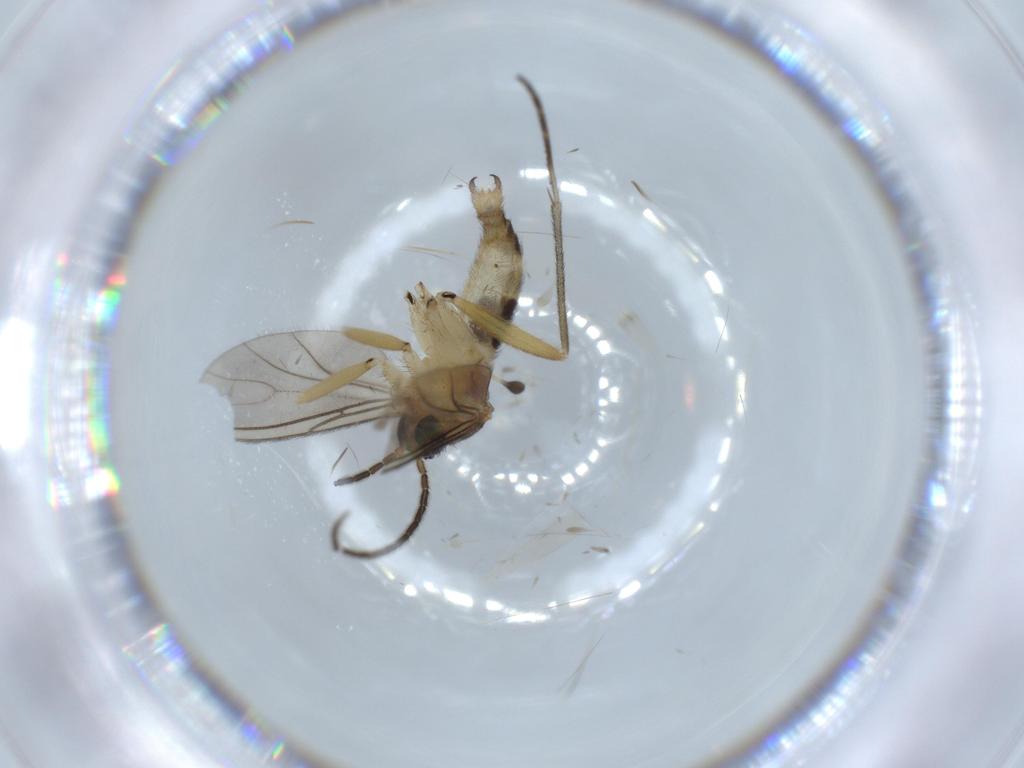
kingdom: Animalia
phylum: Arthropoda
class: Insecta
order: Diptera
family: Sciaridae
